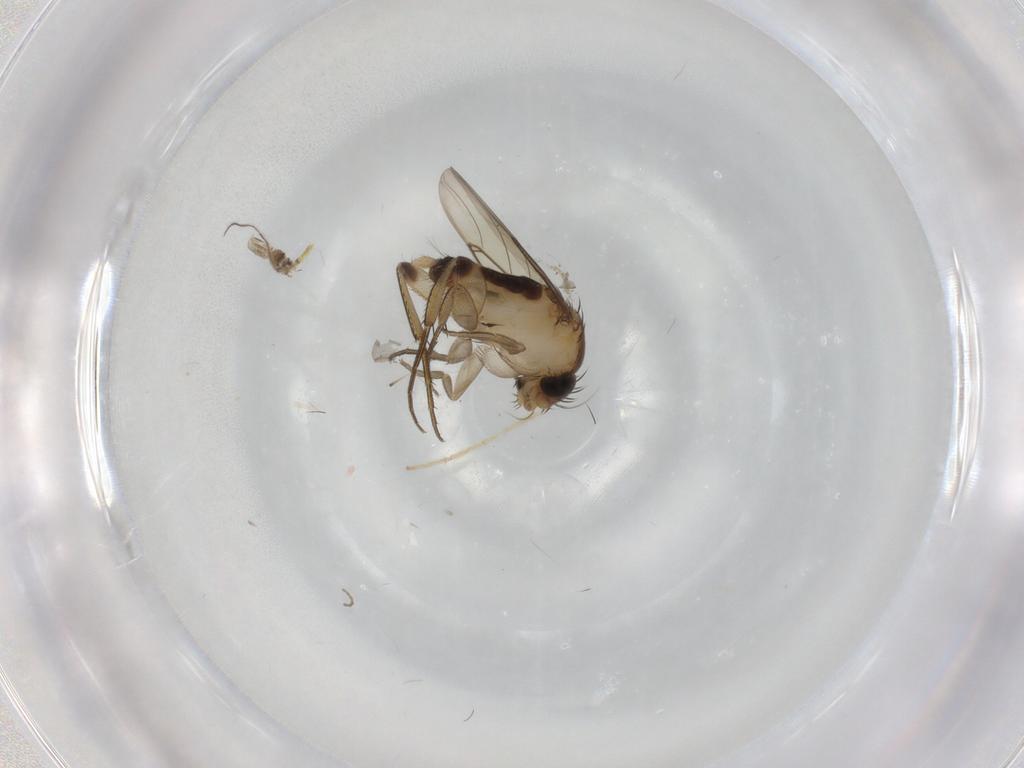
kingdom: Animalia
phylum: Arthropoda
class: Insecta
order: Diptera
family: Phoridae
